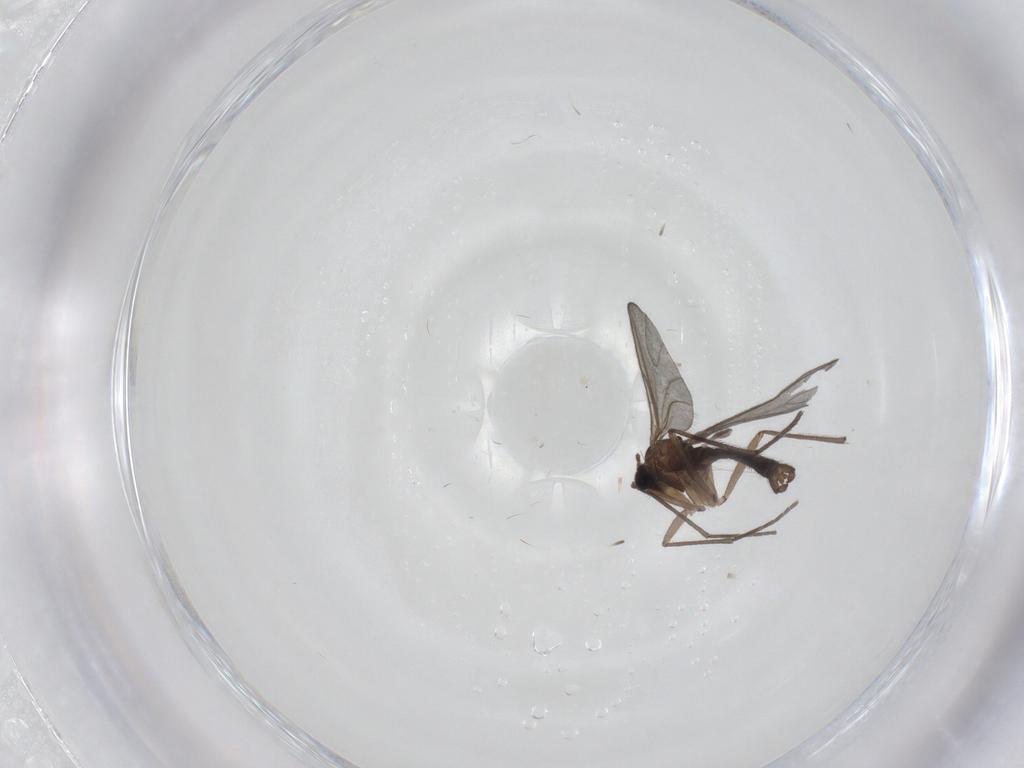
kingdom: Animalia
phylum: Arthropoda
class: Insecta
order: Diptera
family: Sciaridae
